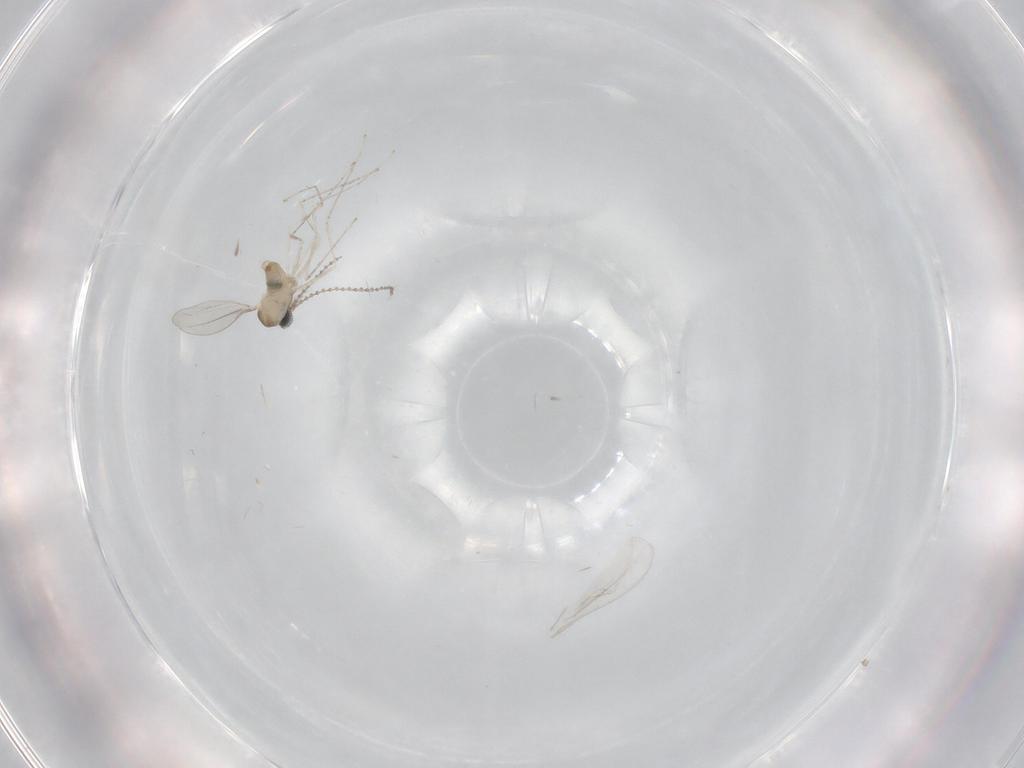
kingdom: Animalia
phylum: Arthropoda
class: Insecta
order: Diptera
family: Cecidomyiidae
